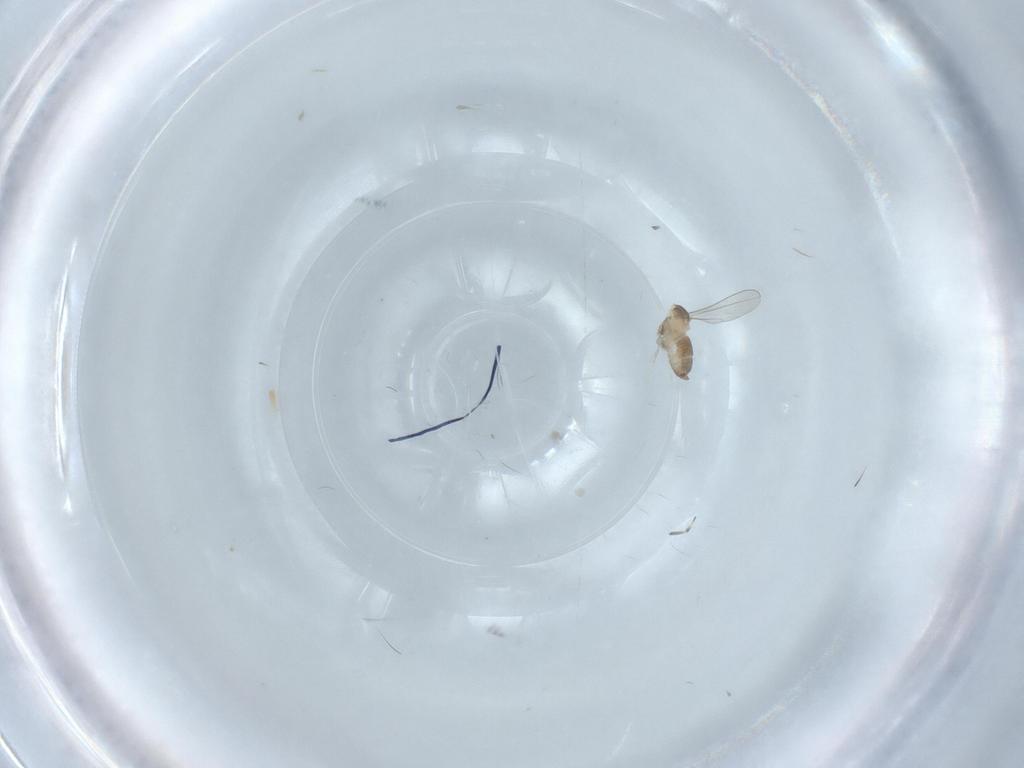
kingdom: Animalia
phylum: Arthropoda
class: Insecta
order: Diptera
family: Cecidomyiidae
